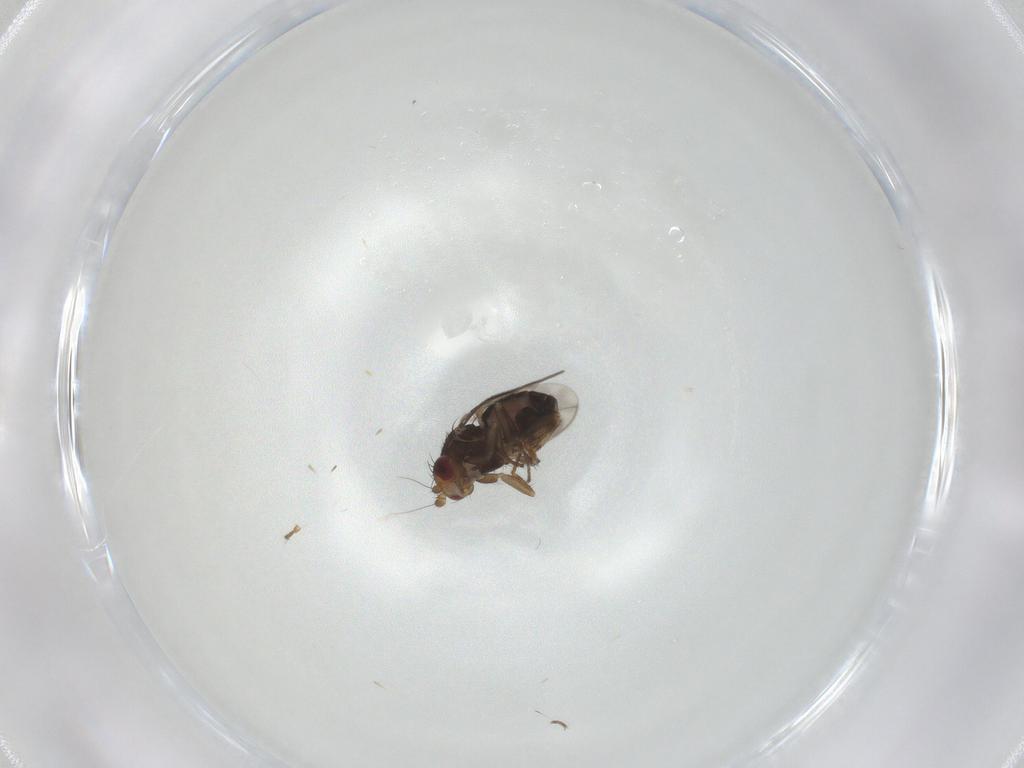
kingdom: Animalia
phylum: Arthropoda
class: Insecta
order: Diptera
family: Sphaeroceridae
